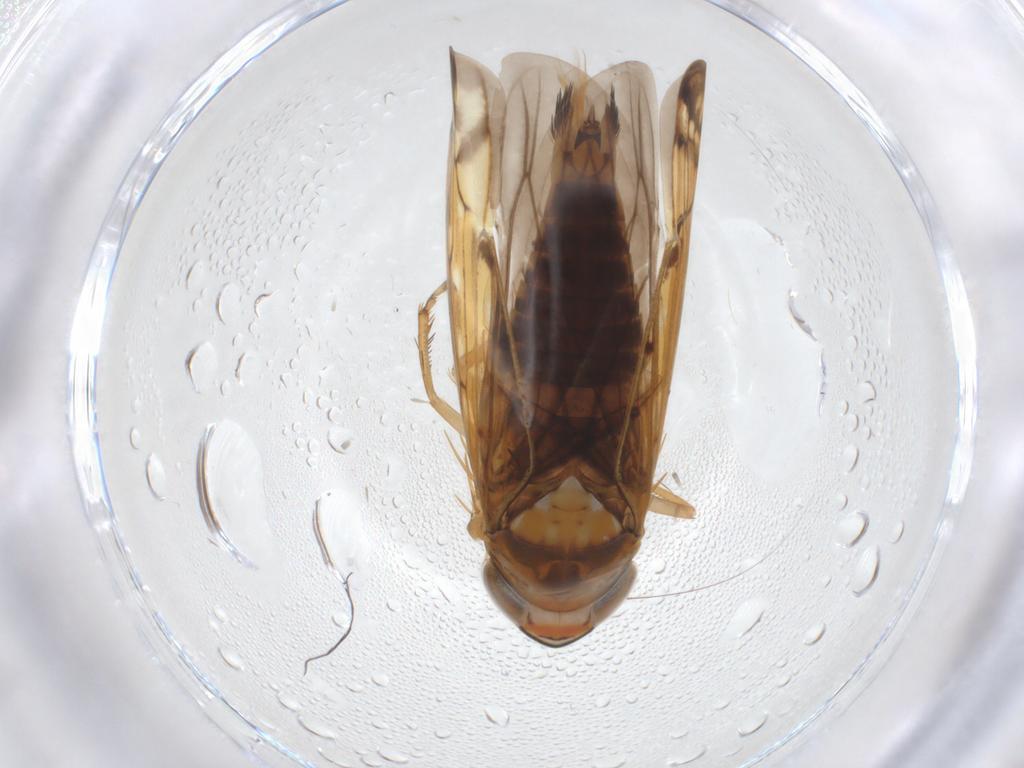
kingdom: Animalia
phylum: Arthropoda
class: Insecta
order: Hemiptera
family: Cicadellidae
